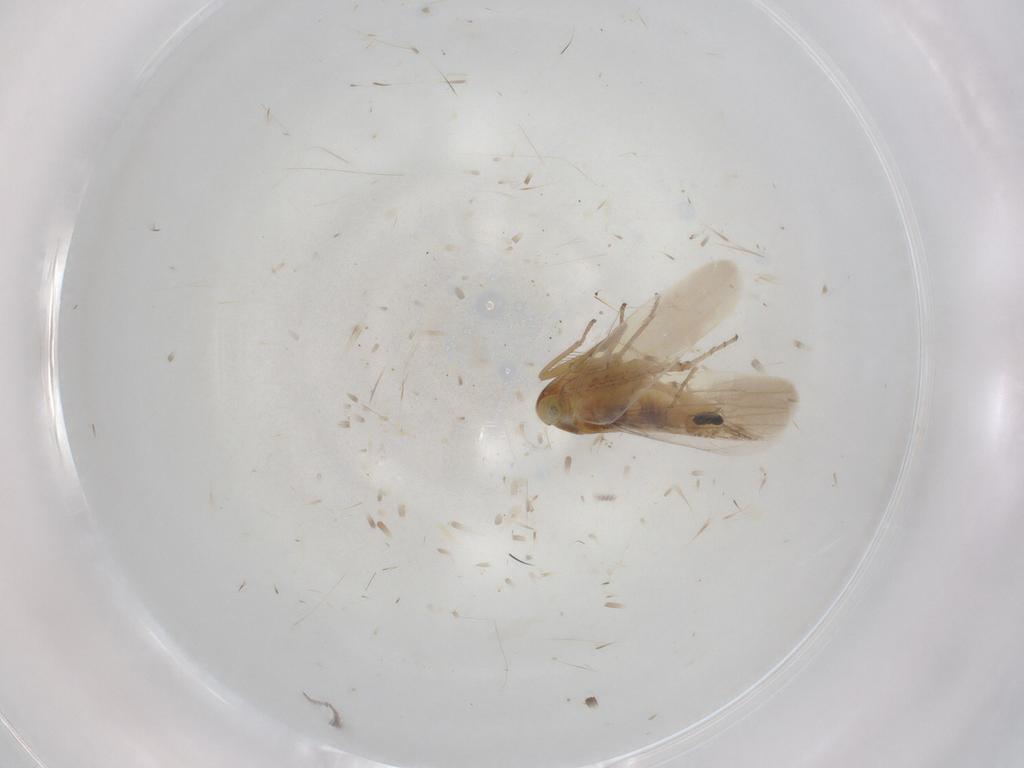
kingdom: Animalia
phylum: Arthropoda
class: Insecta
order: Hemiptera
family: Cicadellidae
